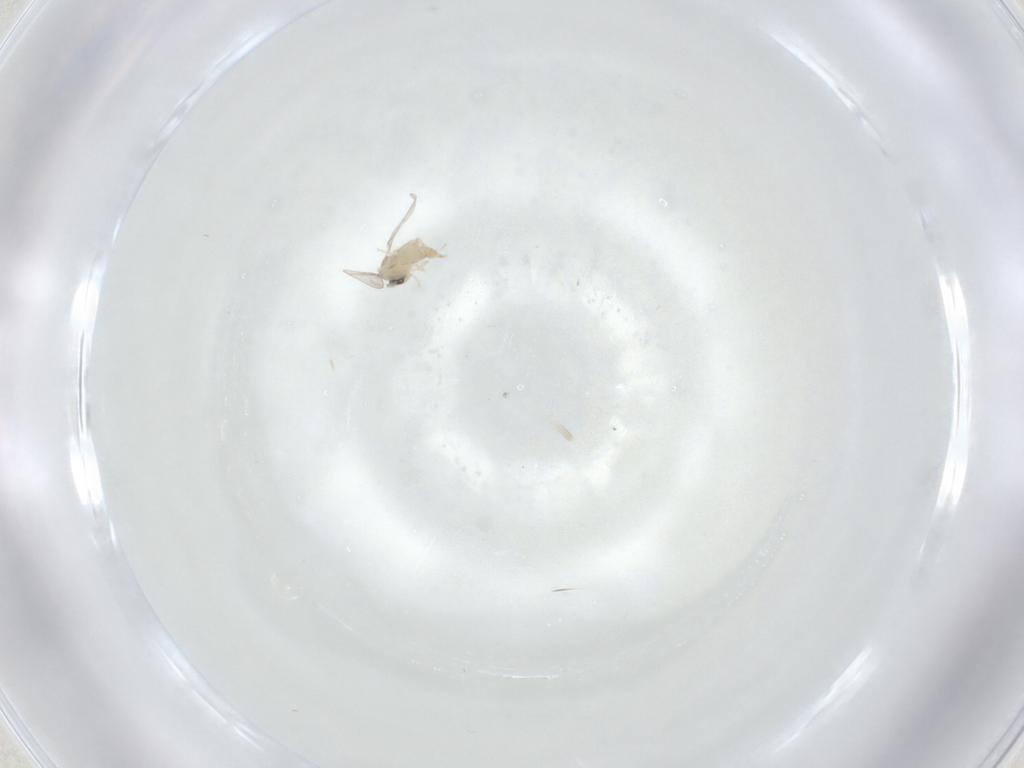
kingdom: Animalia
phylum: Arthropoda
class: Insecta
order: Diptera
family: Cecidomyiidae
